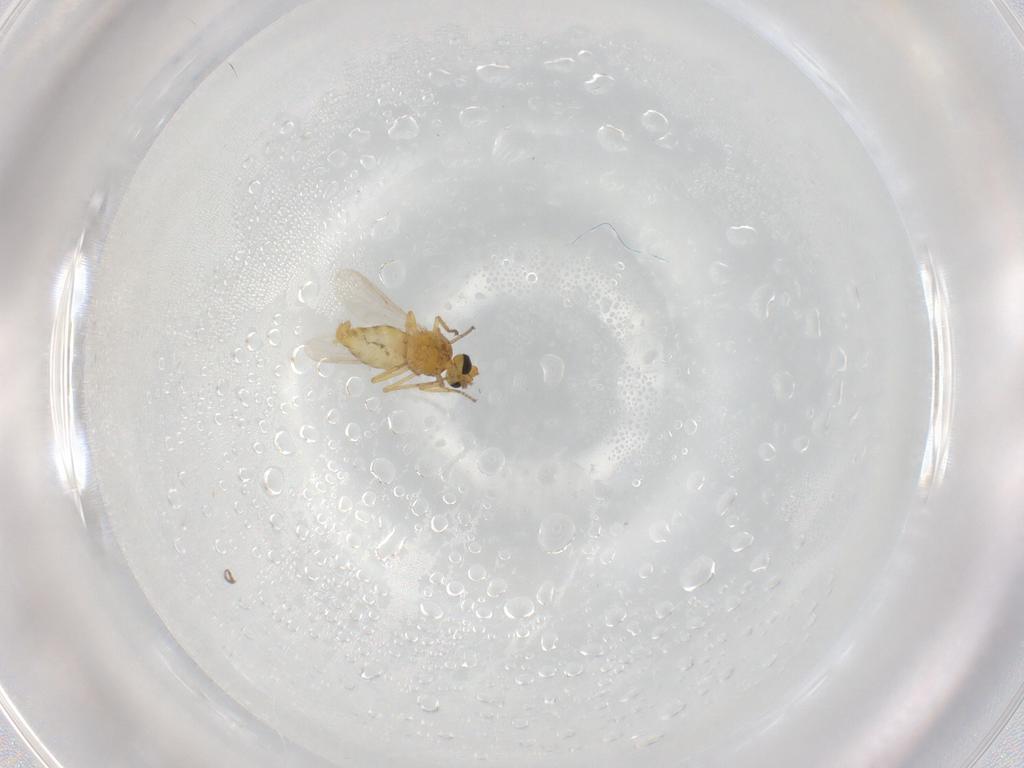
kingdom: Animalia
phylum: Arthropoda
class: Insecta
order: Diptera
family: Ceratopogonidae
